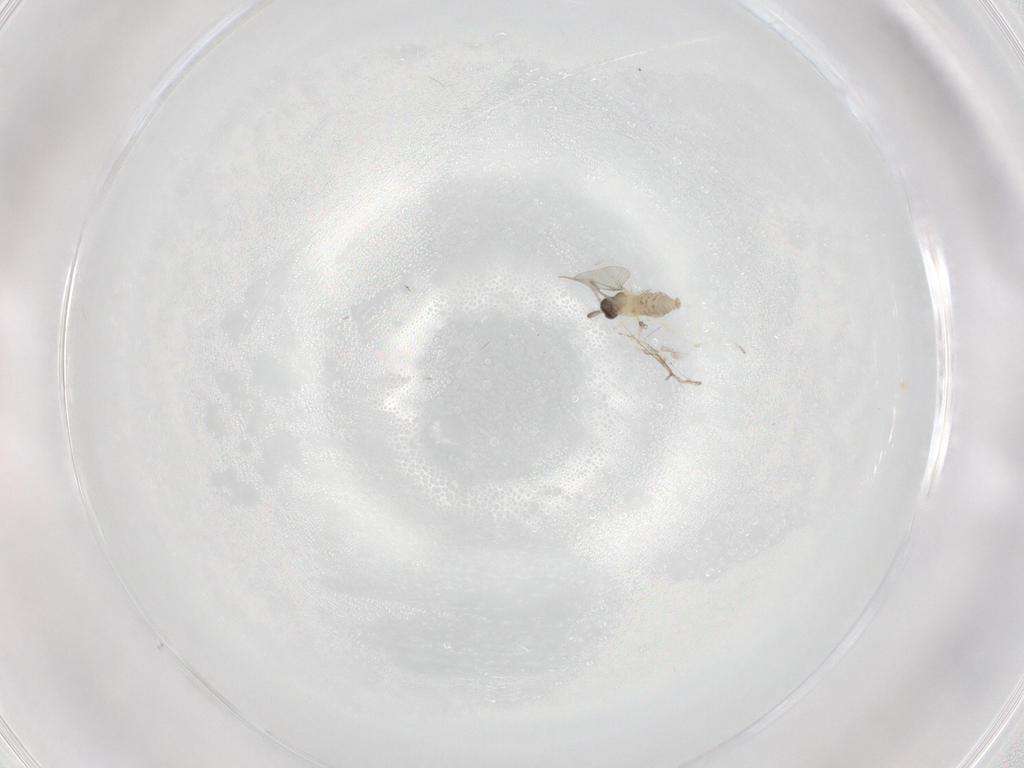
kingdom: Animalia
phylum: Arthropoda
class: Insecta
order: Diptera
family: Cecidomyiidae
